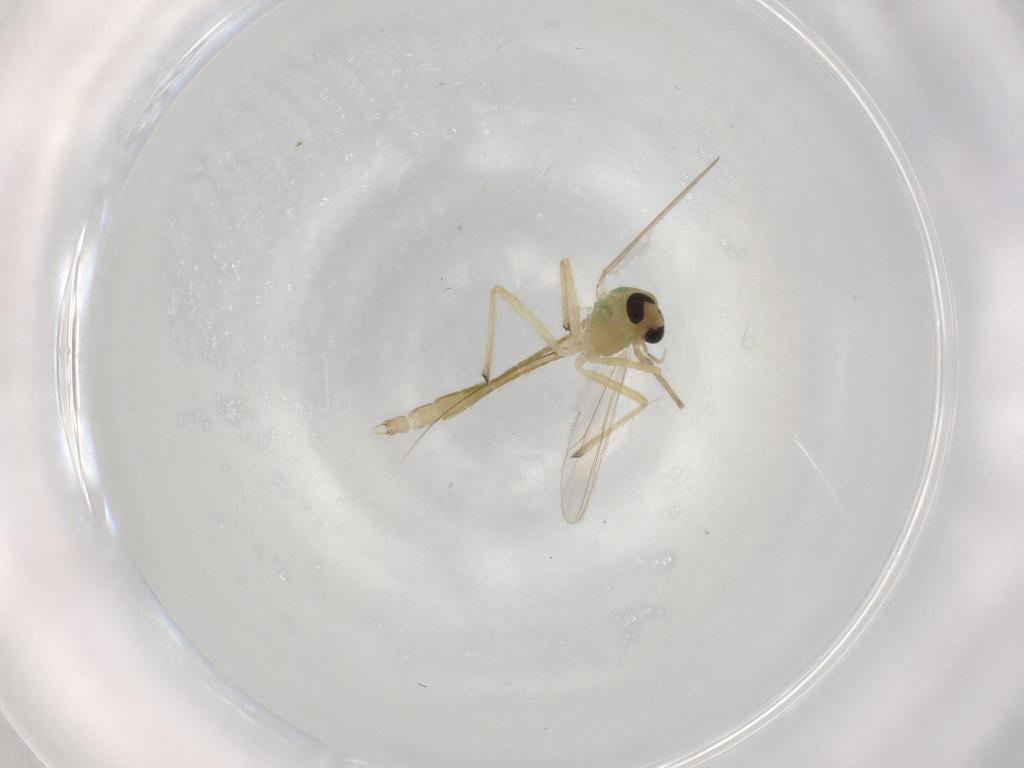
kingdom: Animalia
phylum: Arthropoda
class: Insecta
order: Diptera
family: Chironomidae
